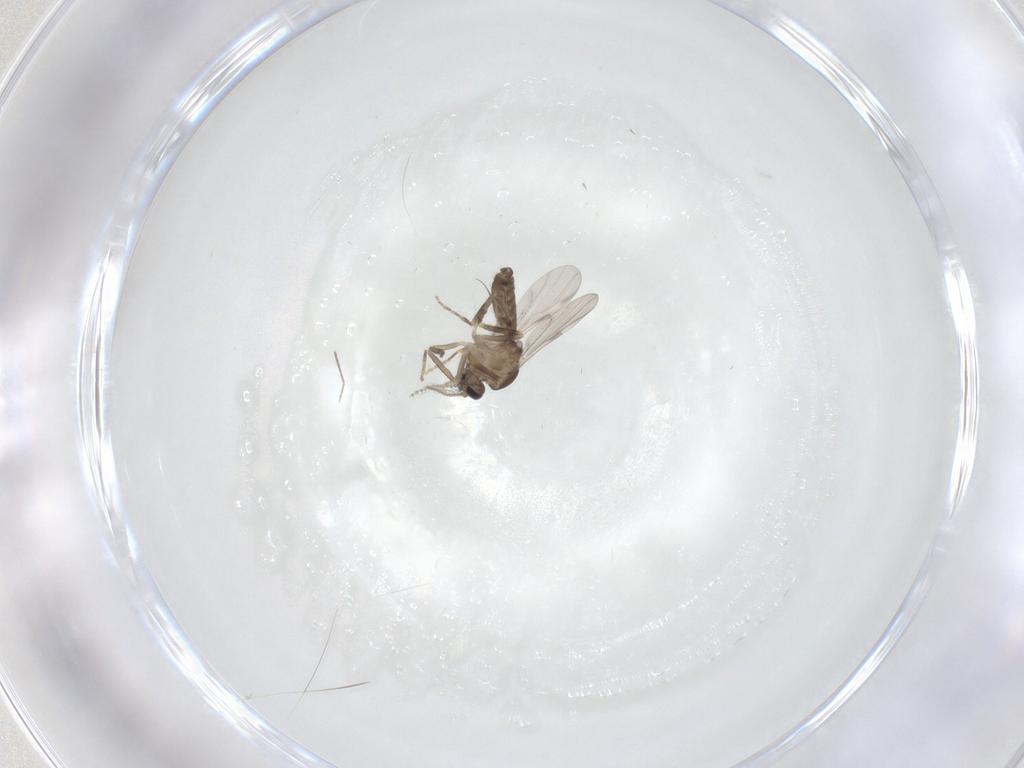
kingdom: Animalia
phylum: Arthropoda
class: Insecta
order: Diptera
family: Ceratopogonidae
